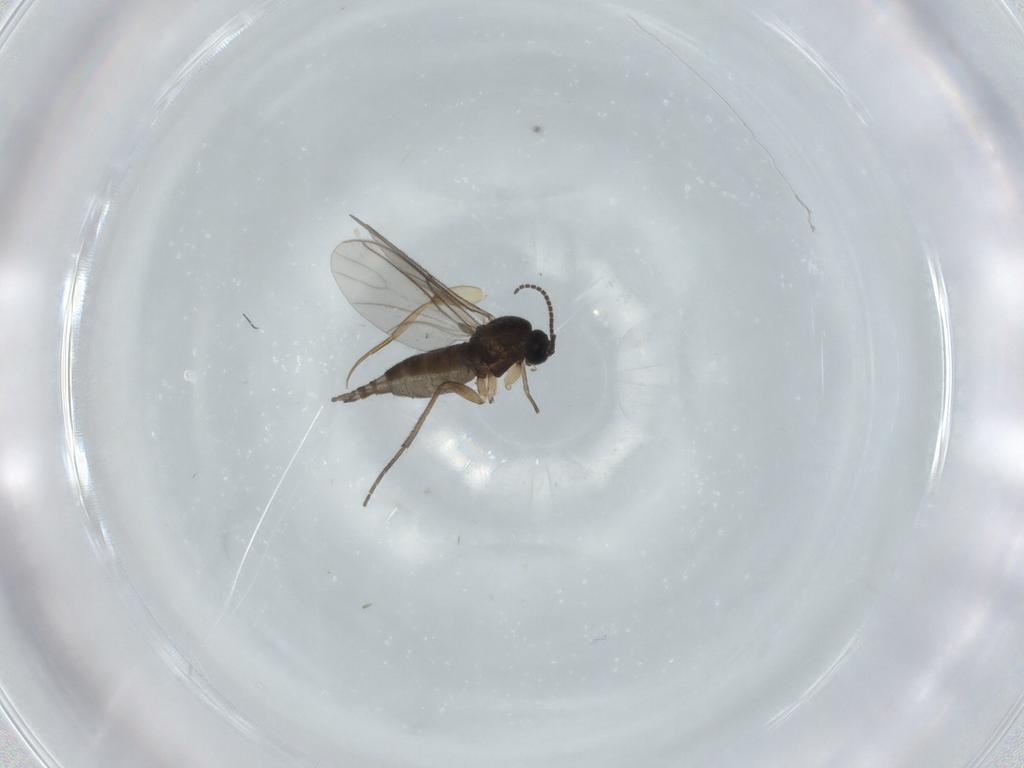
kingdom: Animalia
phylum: Arthropoda
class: Insecta
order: Diptera
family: Sciaridae
